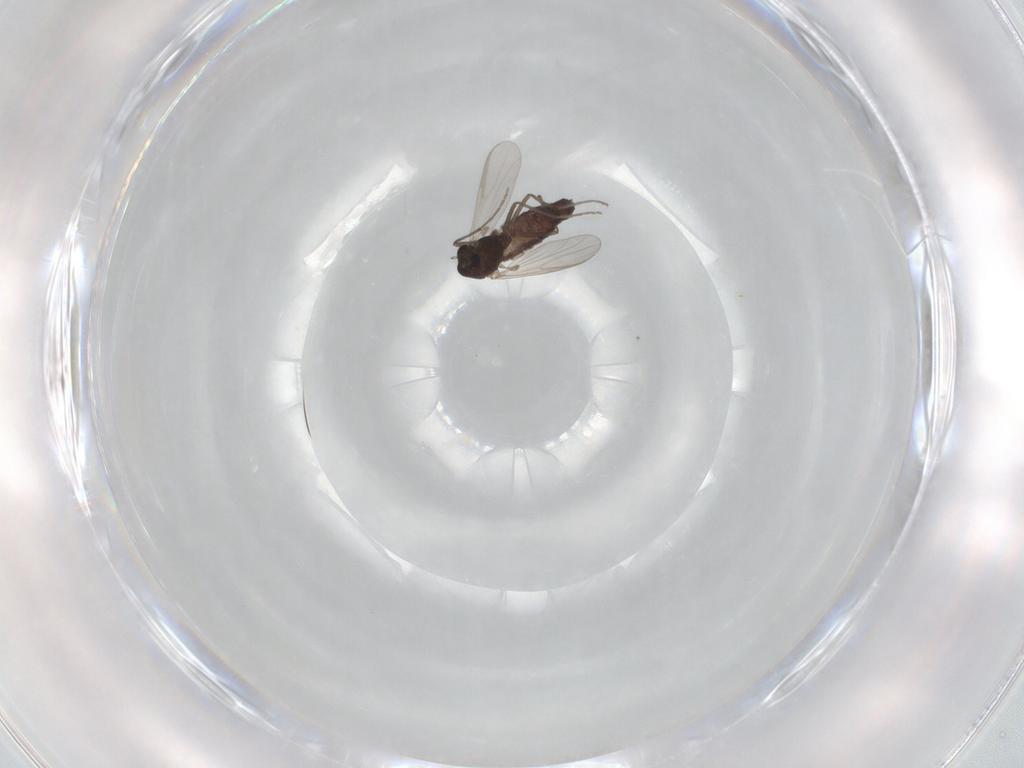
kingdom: Animalia
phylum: Arthropoda
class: Insecta
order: Diptera
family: Chironomidae
